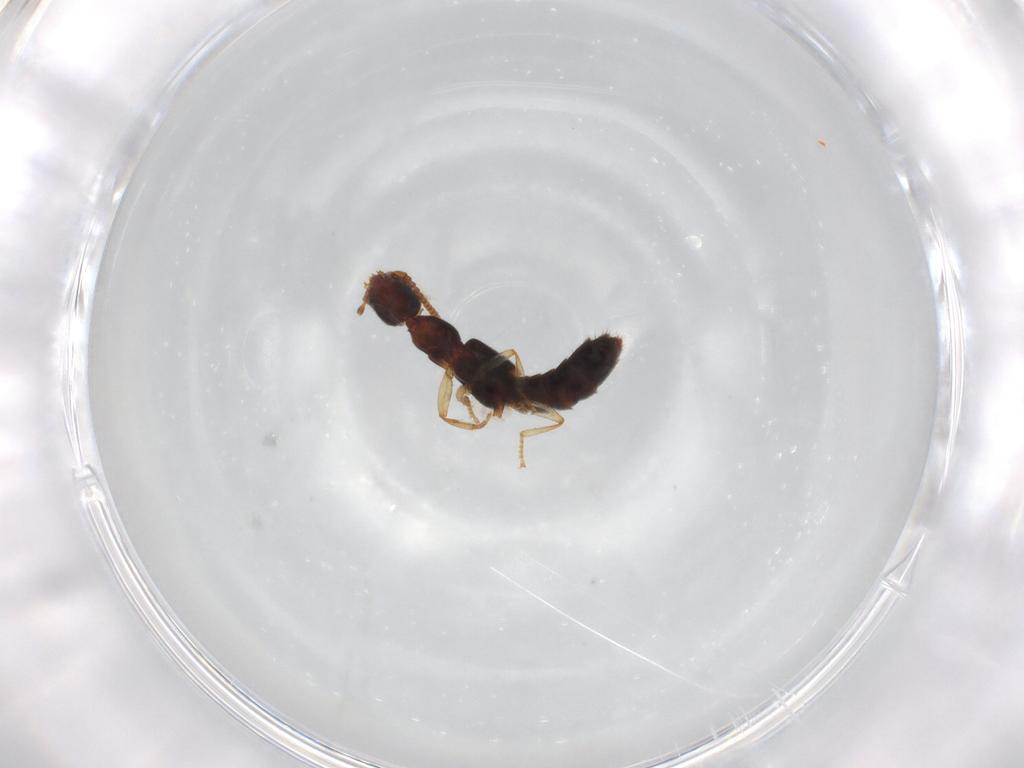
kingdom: Animalia
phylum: Arthropoda
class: Insecta
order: Coleoptera
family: Staphylinidae
